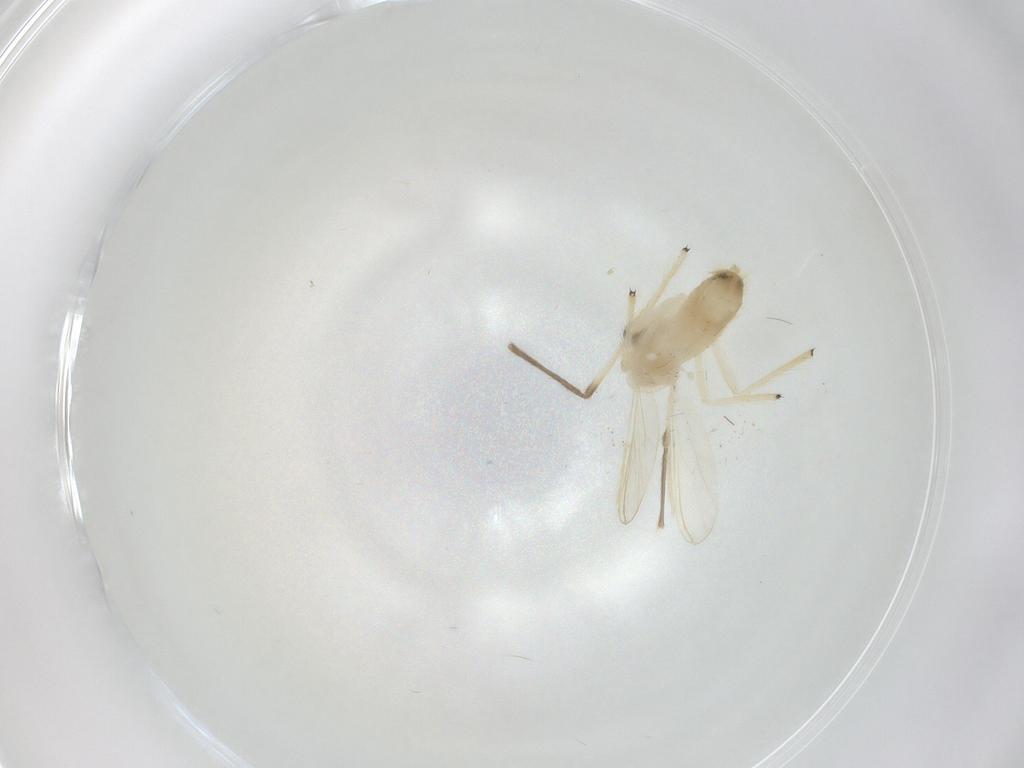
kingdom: Animalia
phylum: Arthropoda
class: Insecta
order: Diptera
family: Chironomidae
